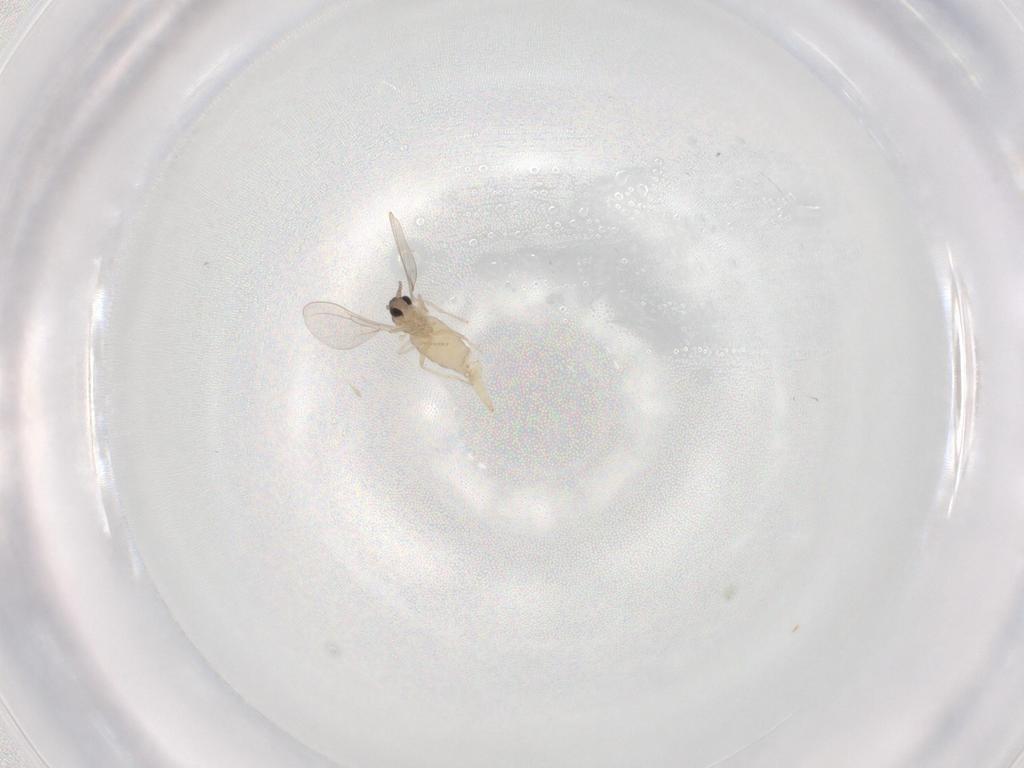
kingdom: Animalia
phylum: Arthropoda
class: Insecta
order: Diptera
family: Cecidomyiidae
